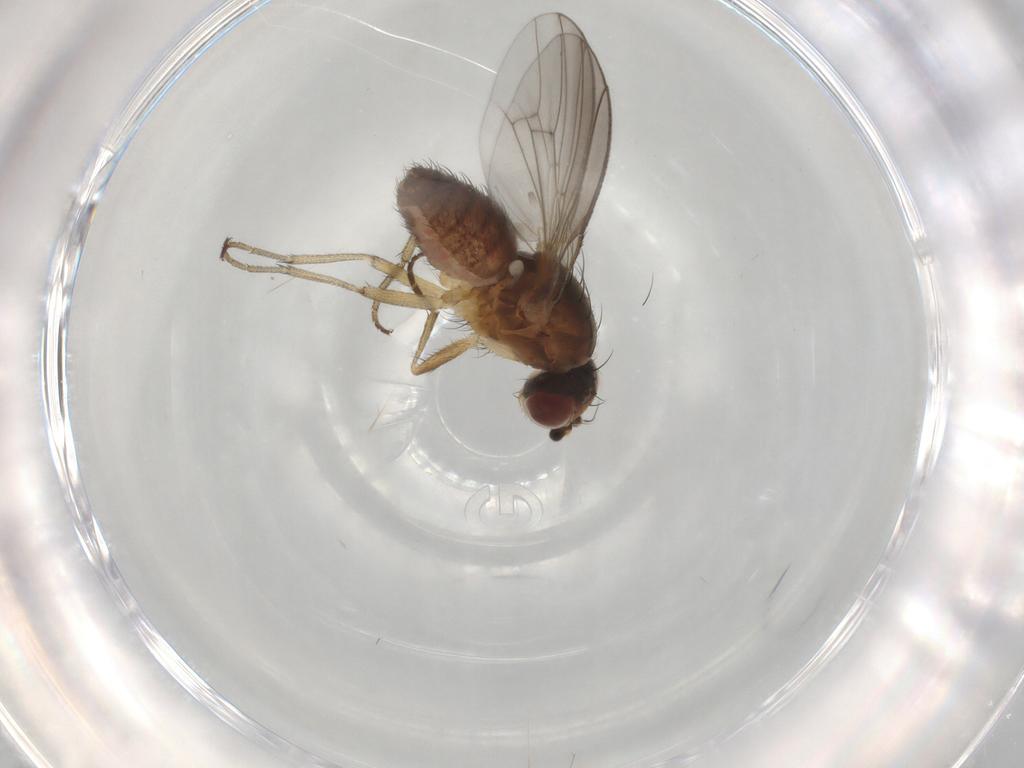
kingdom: Animalia
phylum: Arthropoda
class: Insecta
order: Diptera
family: Heleomyzidae
